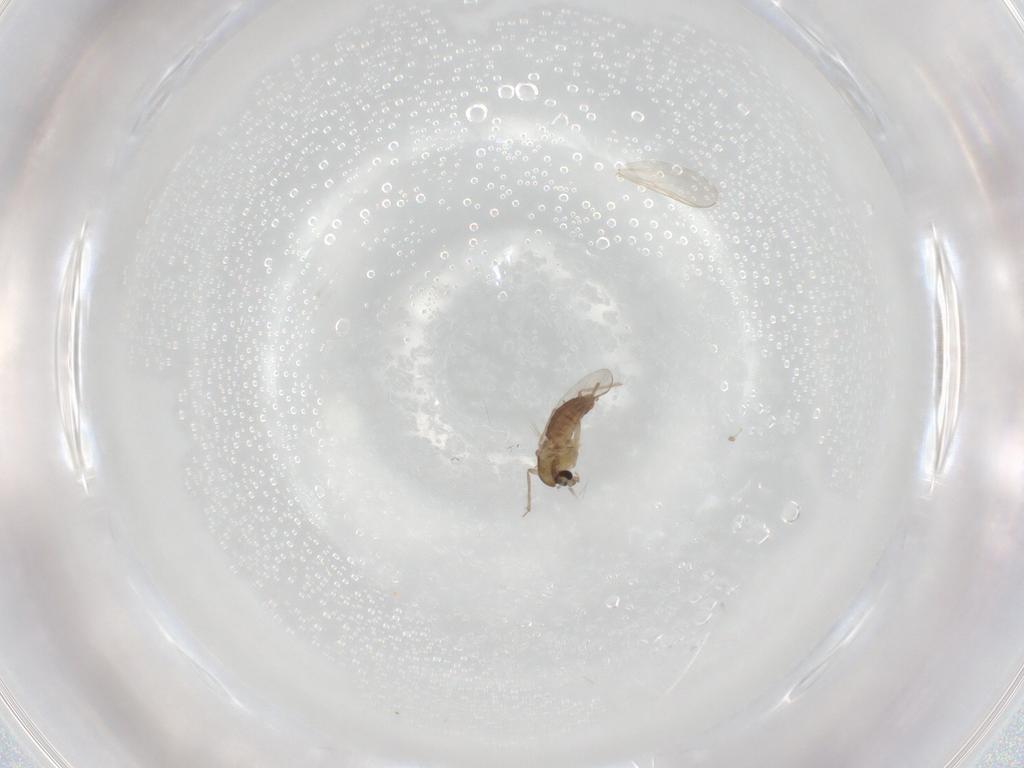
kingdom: Animalia
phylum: Arthropoda
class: Insecta
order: Diptera
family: Chironomidae
